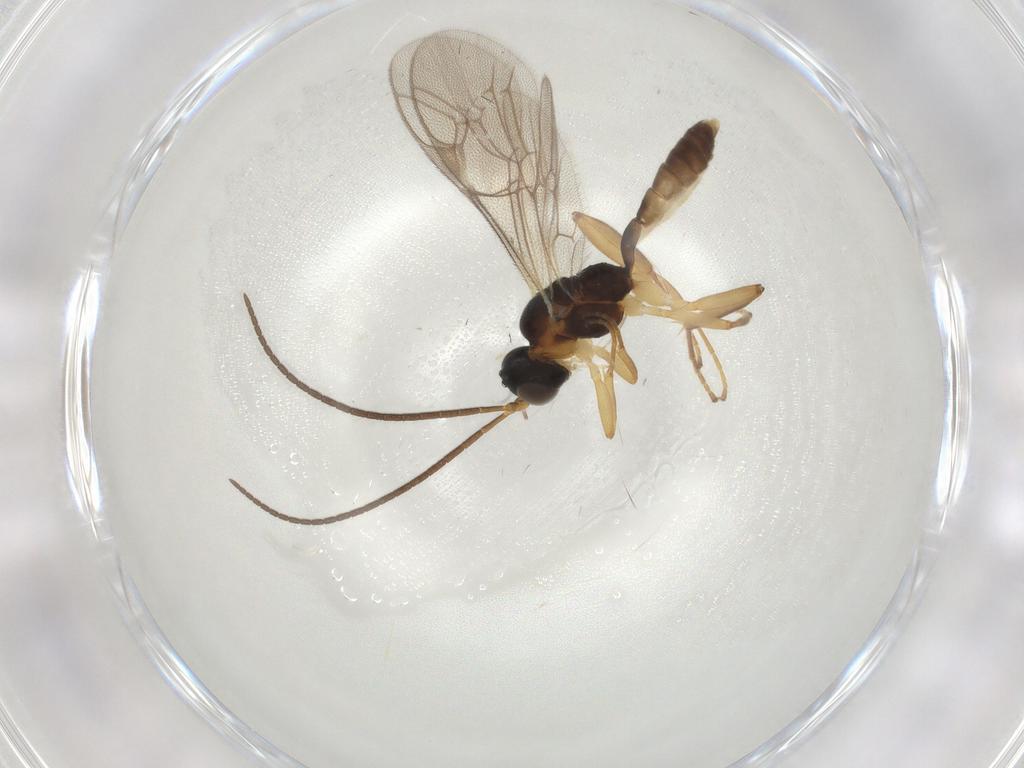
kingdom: Animalia
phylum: Arthropoda
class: Insecta
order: Hymenoptera
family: Ichneumonidae
